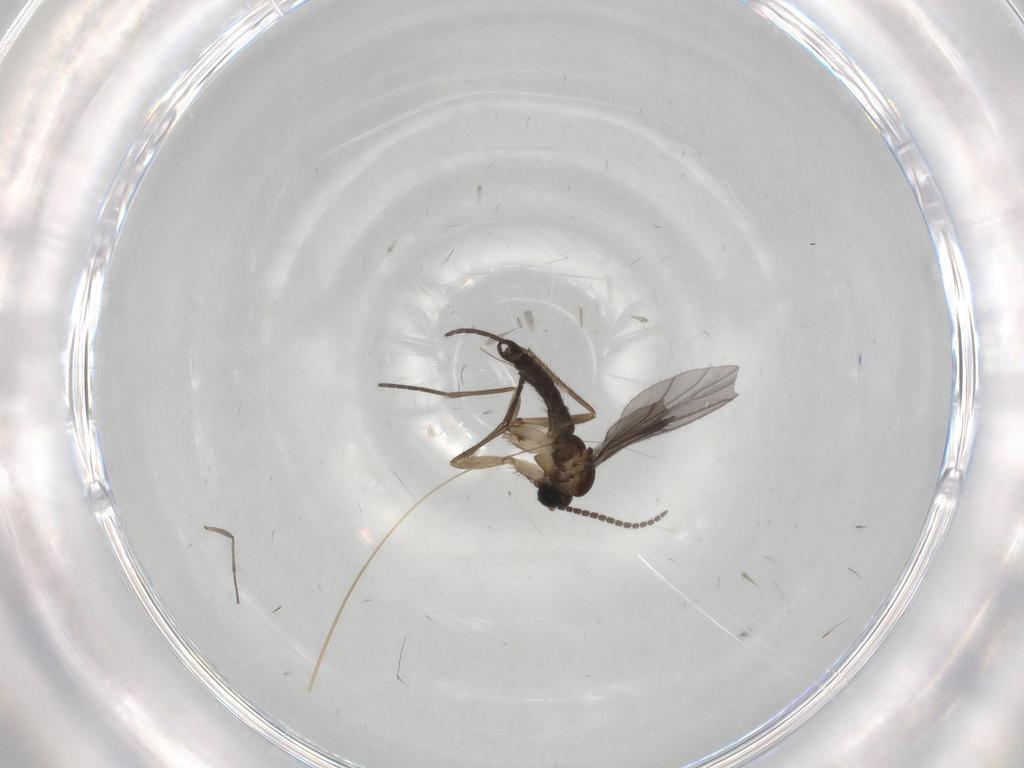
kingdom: Animalia
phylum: Arthropoda
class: Insecta
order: Diptera
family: Sciaridae
